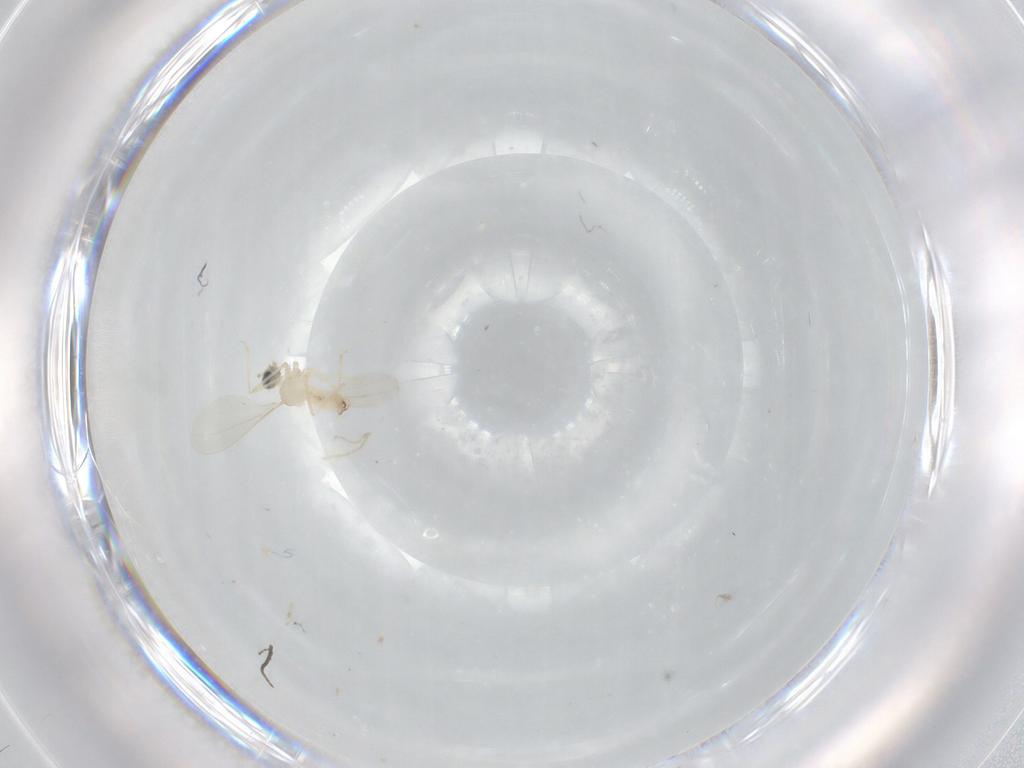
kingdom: Animalia
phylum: Arthropoda
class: Insecta
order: Diptera
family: Cecidomyiidae
